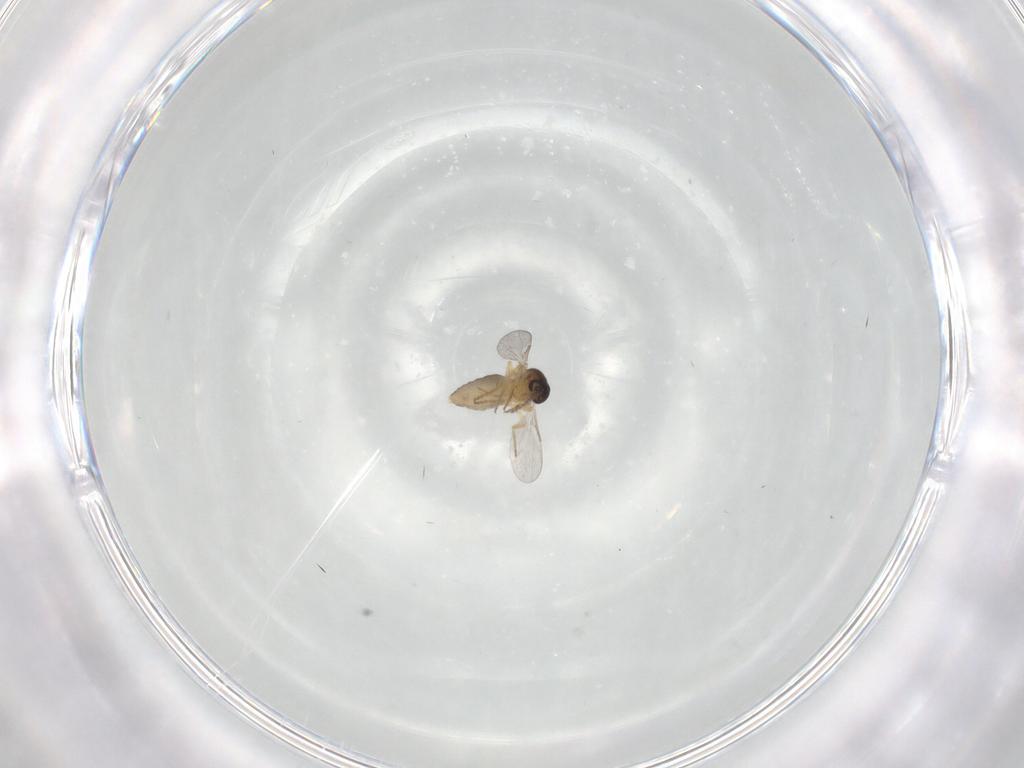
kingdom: Animalia
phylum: Arthropoda
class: Insecta
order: Diptera
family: Ceratopogonidae
